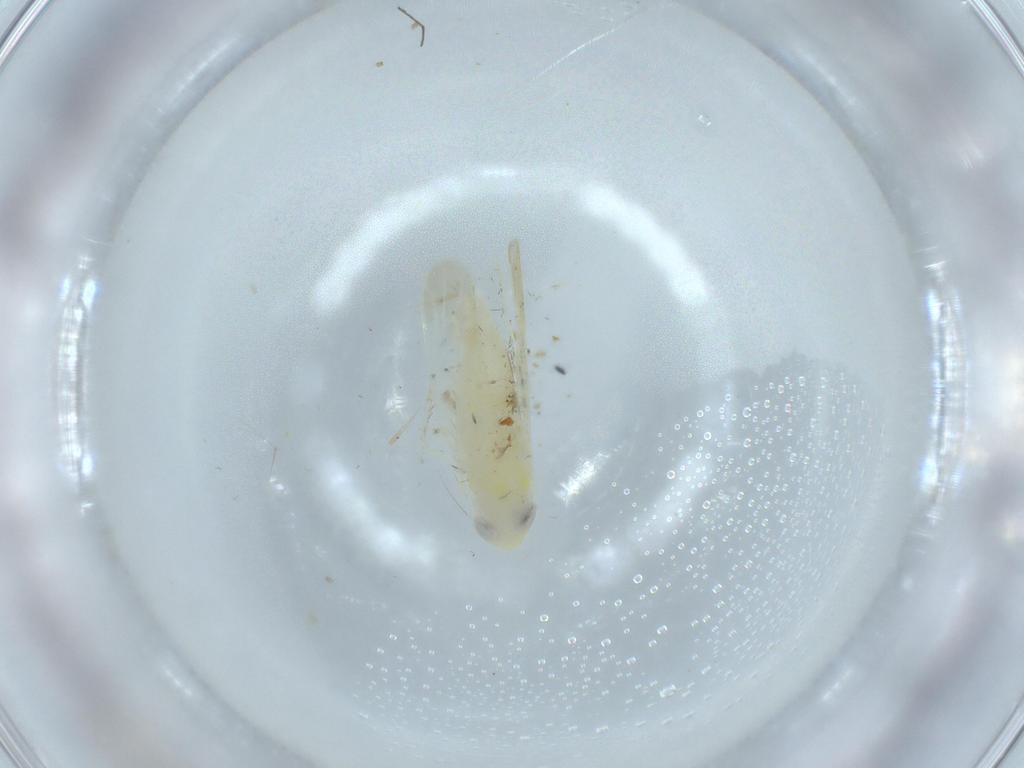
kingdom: Animalia
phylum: Arthropoda
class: Insecta
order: Hemiptera
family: Cicadellidae
